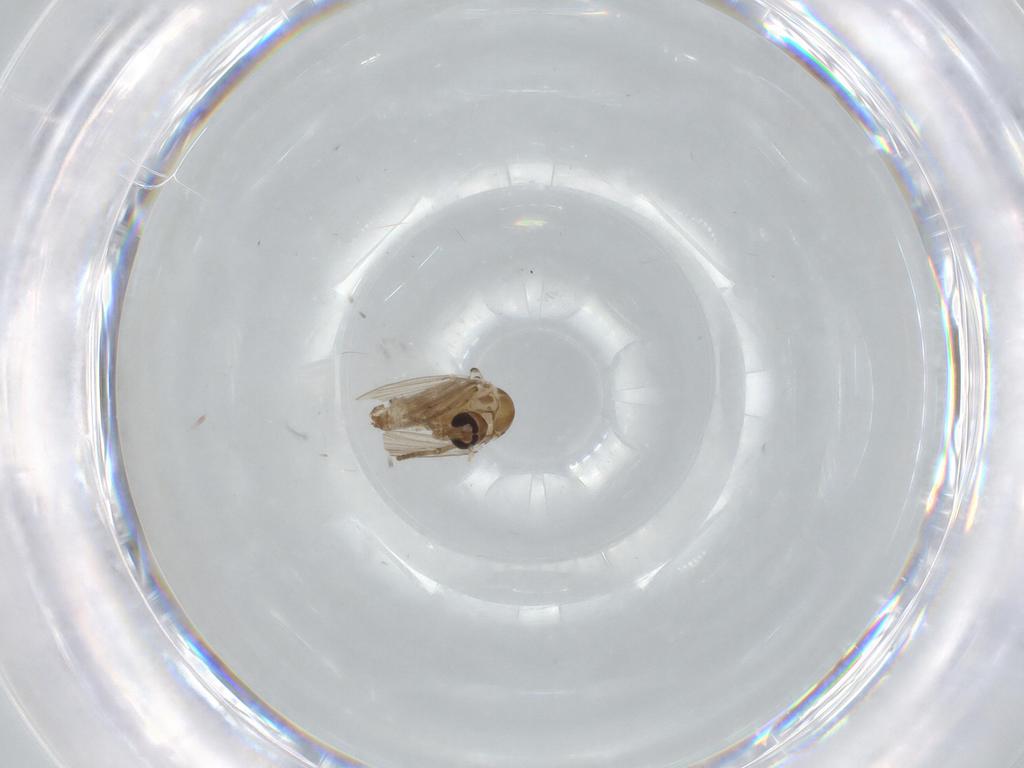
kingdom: Animalia
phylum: Arthropoda
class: Insecta
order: Diptera
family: Psychodidae
